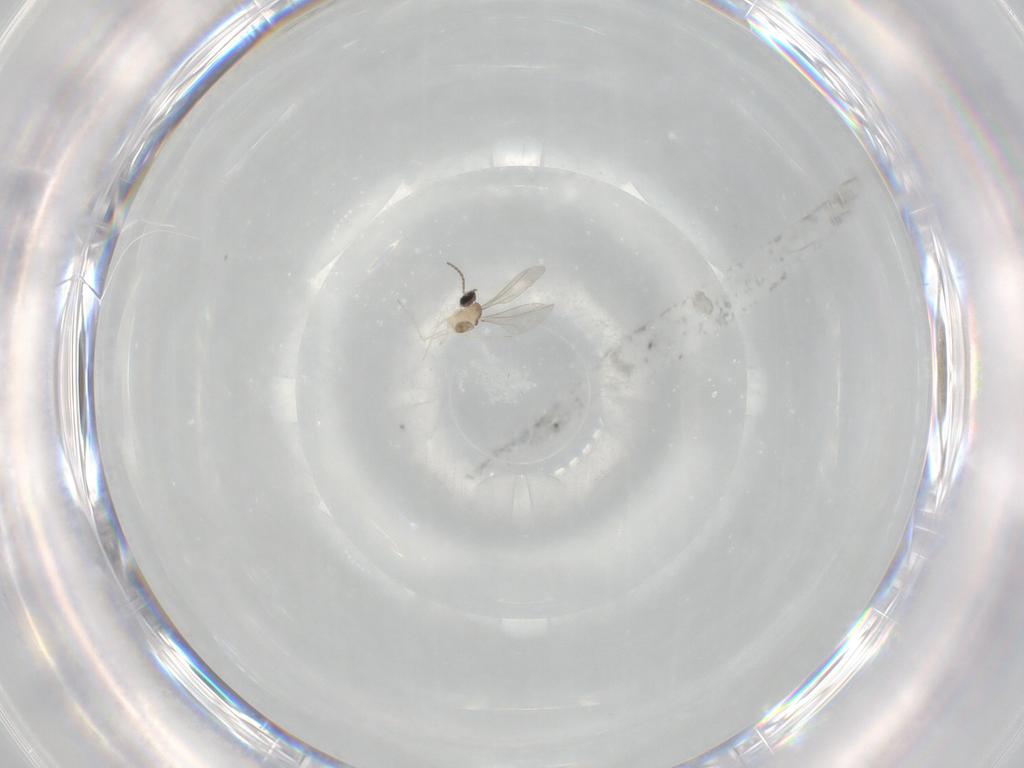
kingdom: Animalia
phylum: Arthropoda
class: Insecta
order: Diptera
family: Cecidomyiidae
